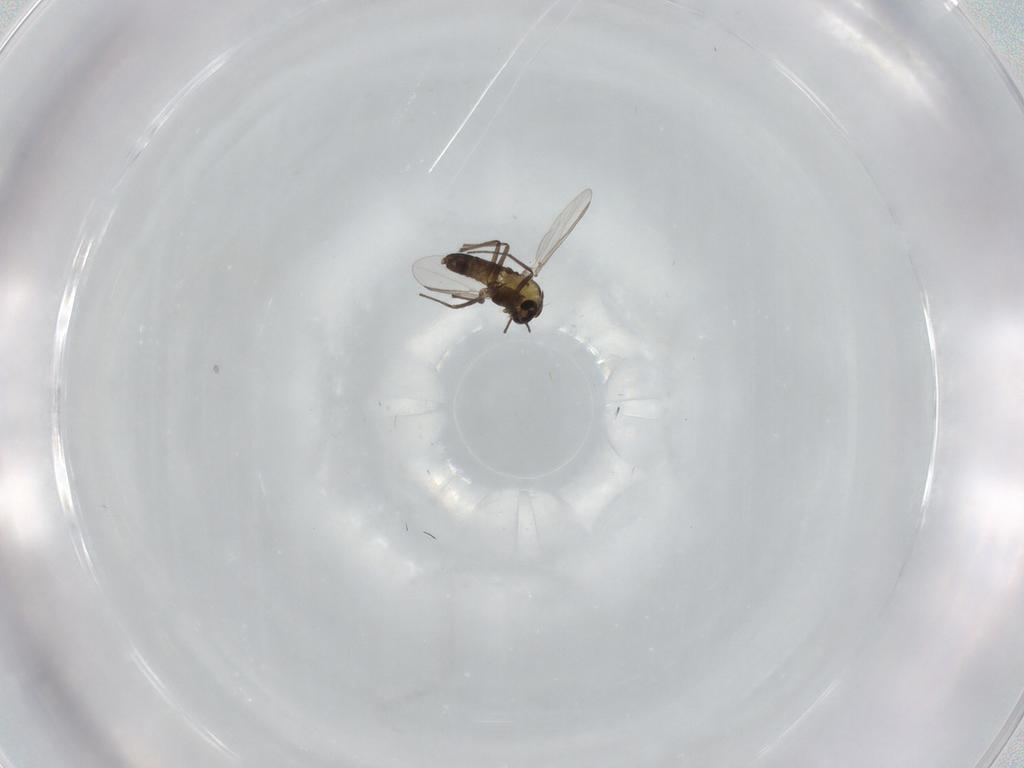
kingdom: Animalia
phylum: Arthropoda
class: Insecta
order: Diptera
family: Chironomidae
